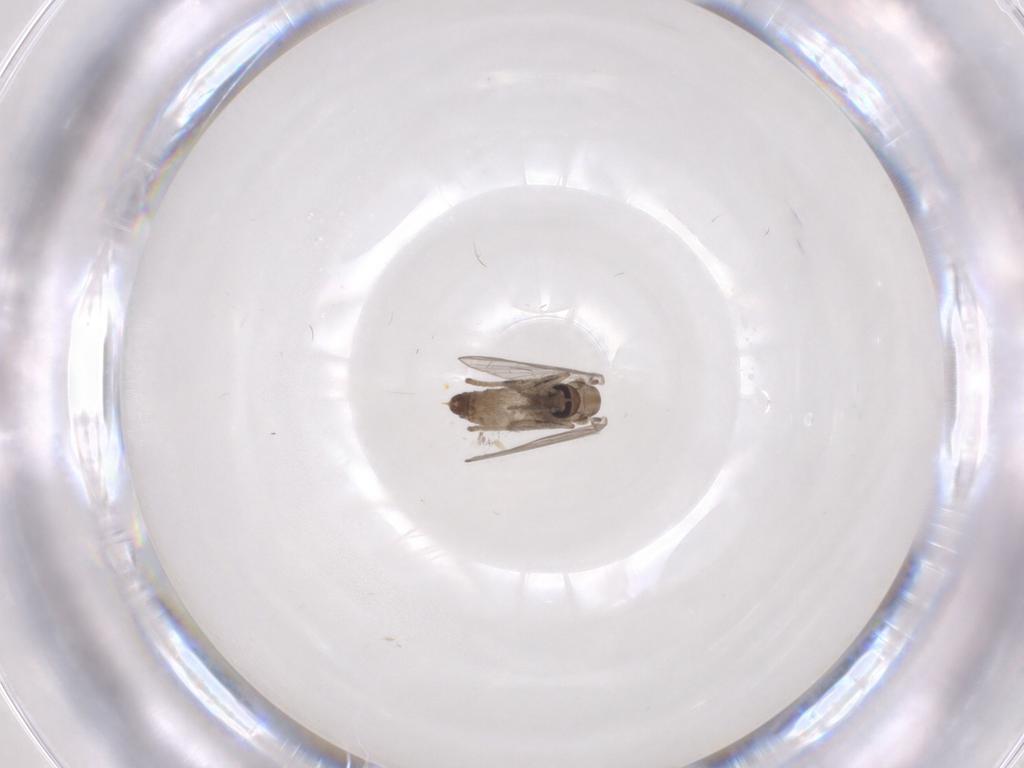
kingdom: Animalia
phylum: Arthropoda
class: Insecta
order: Diptera
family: Psychodidae
